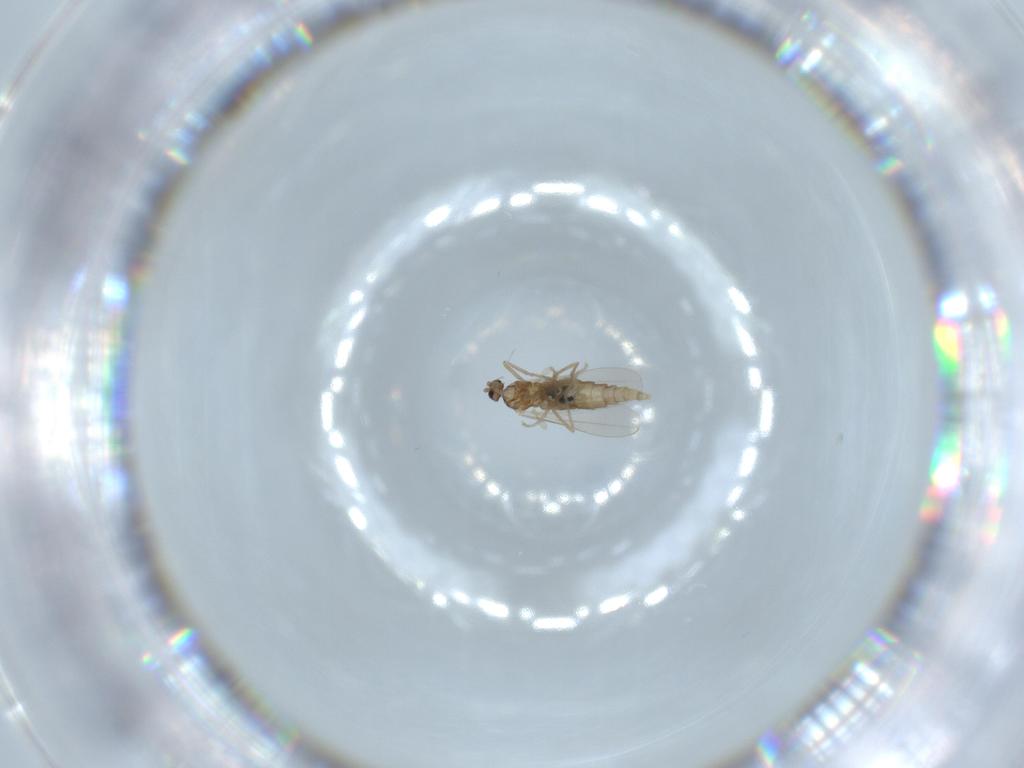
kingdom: Animalia
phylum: Arthropoda
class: Insecta
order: Diptera
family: Cecidomyiidae
